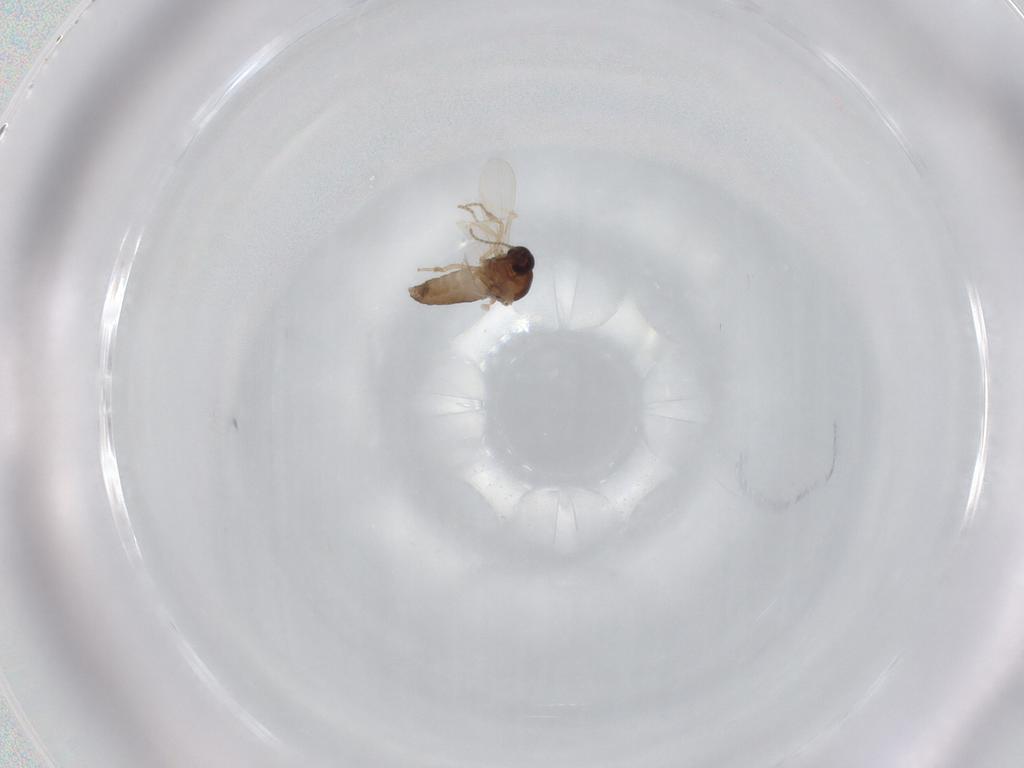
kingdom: Animalia
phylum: Arthropoda
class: Insecta
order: Diptera
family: Ceratopogonidae
